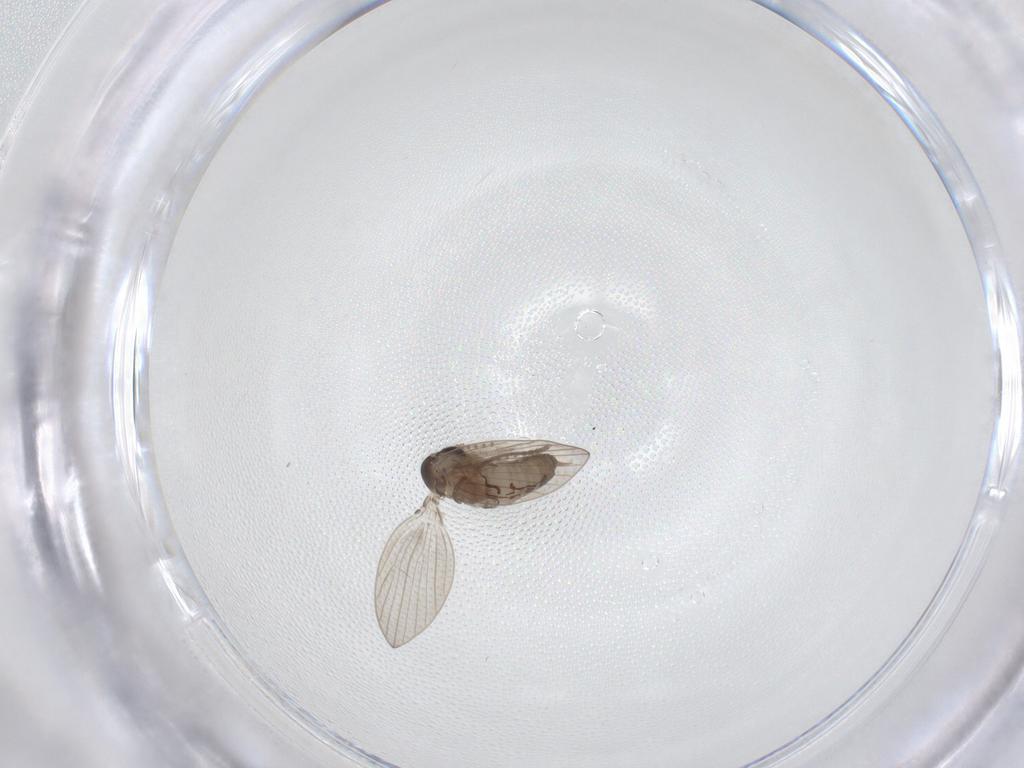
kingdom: Animalia
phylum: Arthropoda
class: Insecta
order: Diptera
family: Psychodidae
